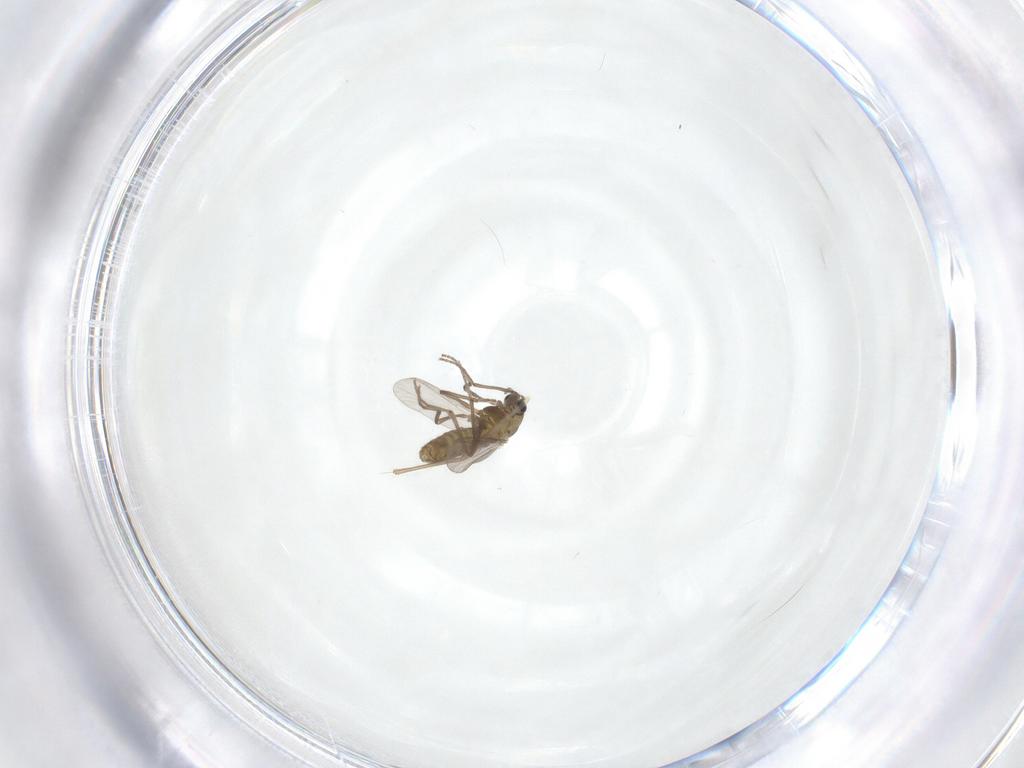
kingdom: Animalia
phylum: Arthropoda
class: Insecta
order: Diptera
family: Chironomidae
